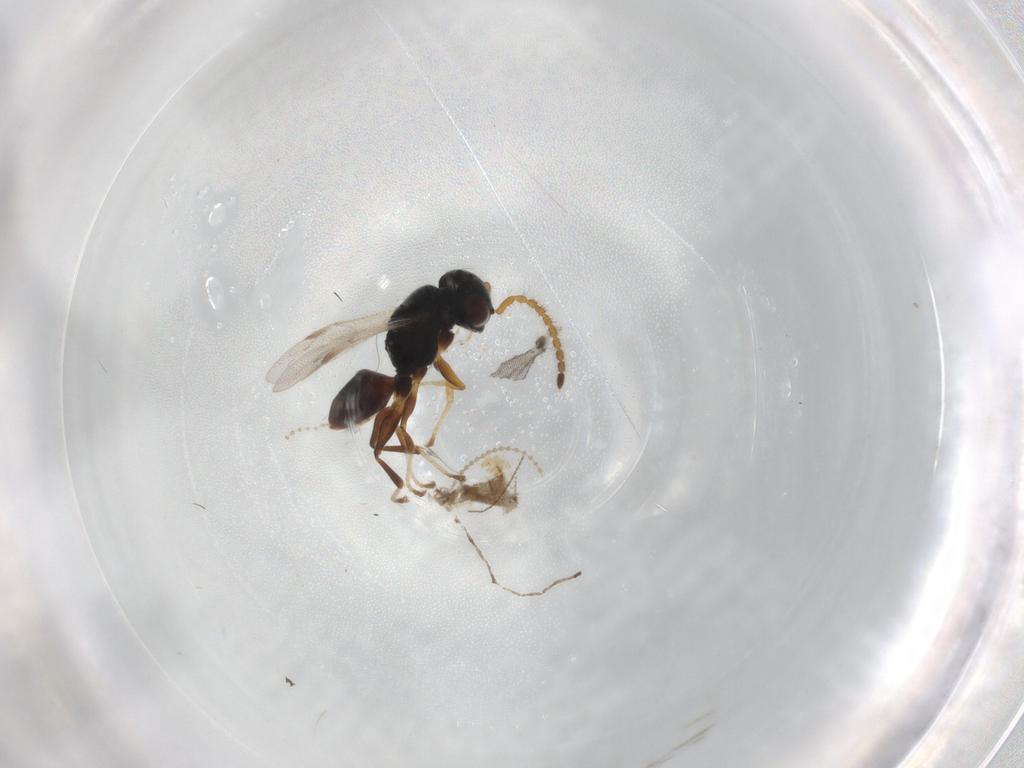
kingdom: Animalia
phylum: Arthropoda
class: Insecta
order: Hymenoptera
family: Dryinidae
